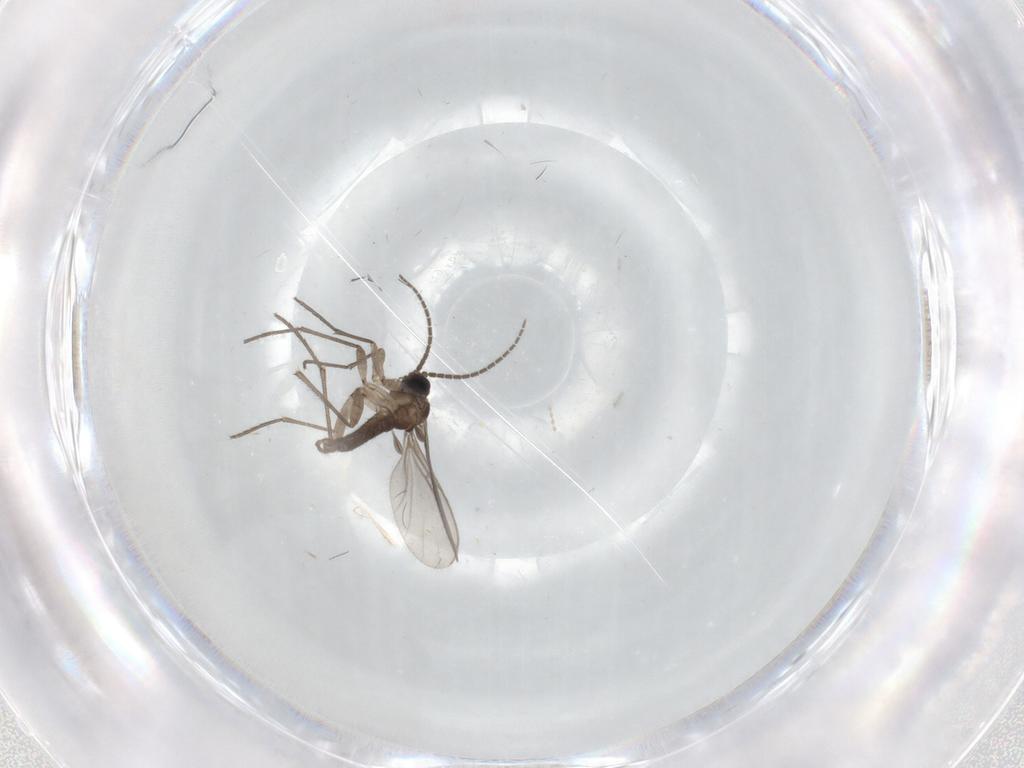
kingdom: Animalia
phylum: Arthropoda
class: Insecta
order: Diptera
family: Sciaridae
